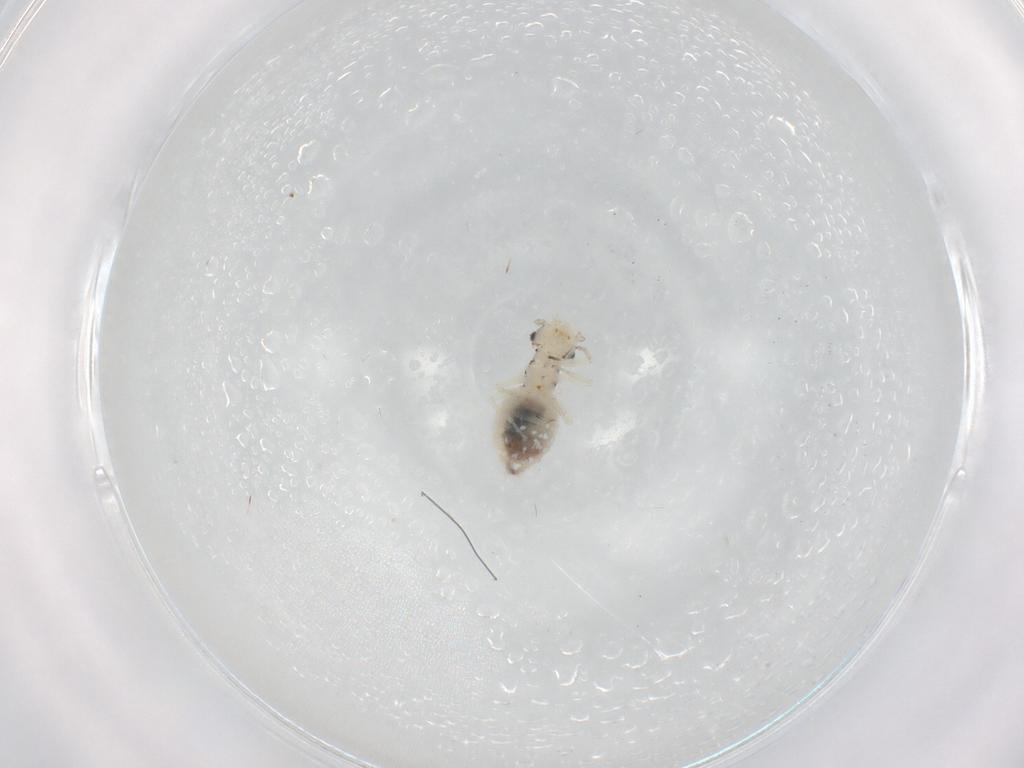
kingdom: Animalia
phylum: Arthropoda
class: Insecta
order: Psocodea
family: Caeciliusidae
